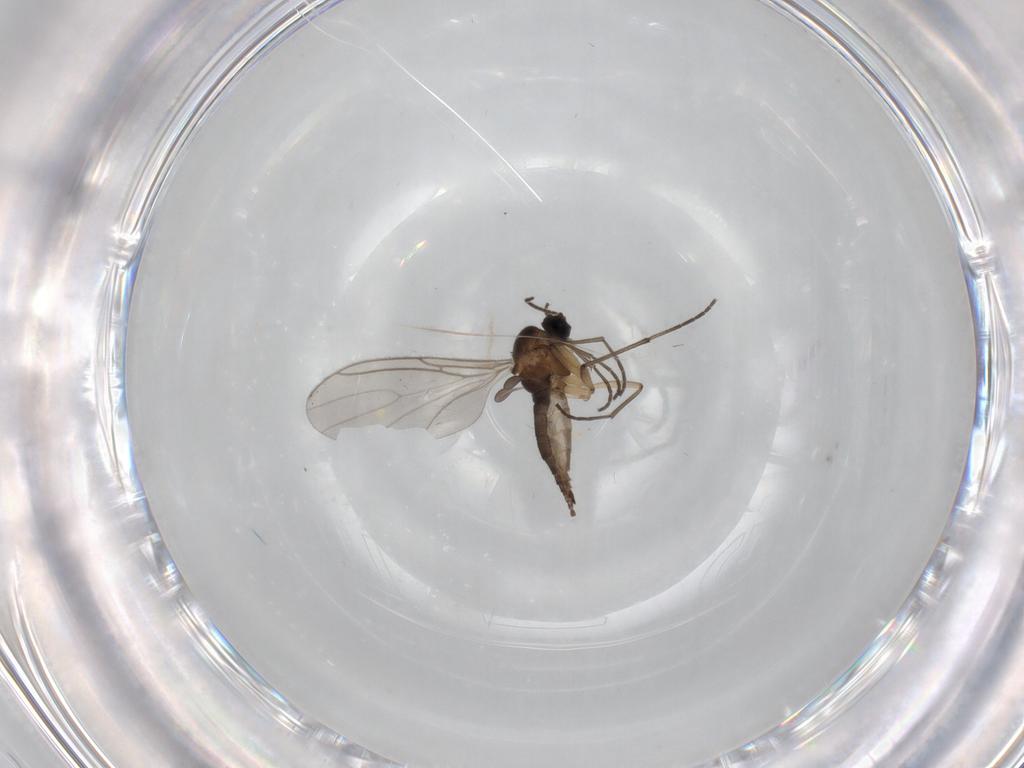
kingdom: Animalia
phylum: Arthropoda
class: Insecta
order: Diptera
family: Sciaridae
